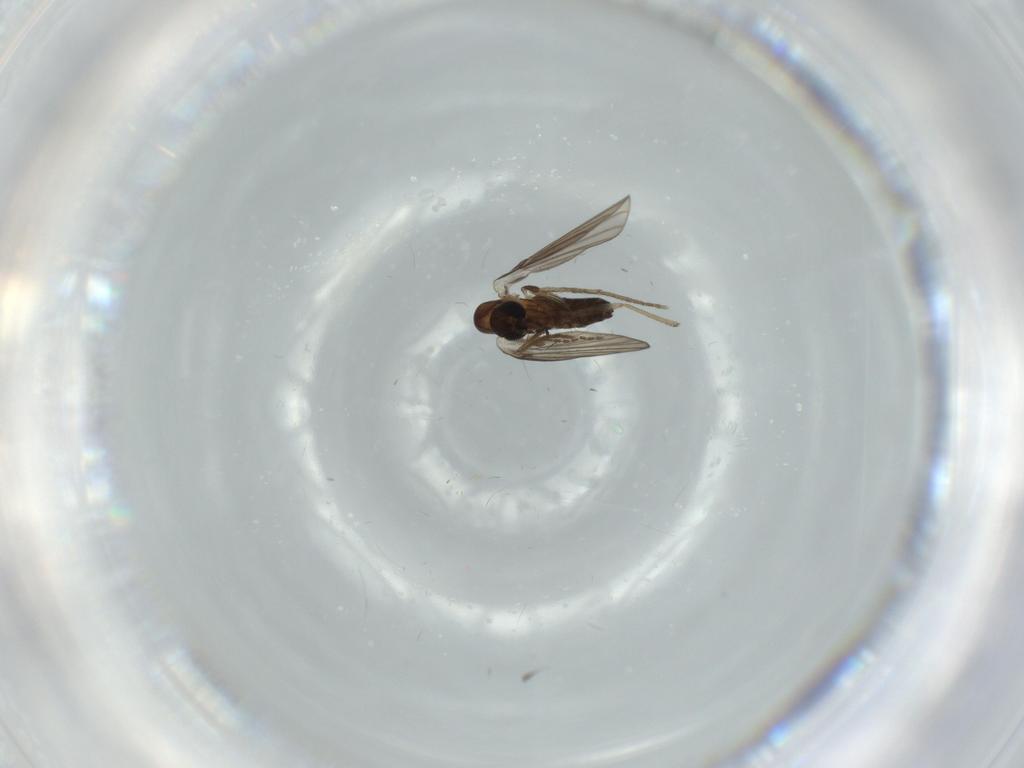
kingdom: Animalia
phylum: Arthropoda
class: Insecta
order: Diptera
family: Psychodidae
